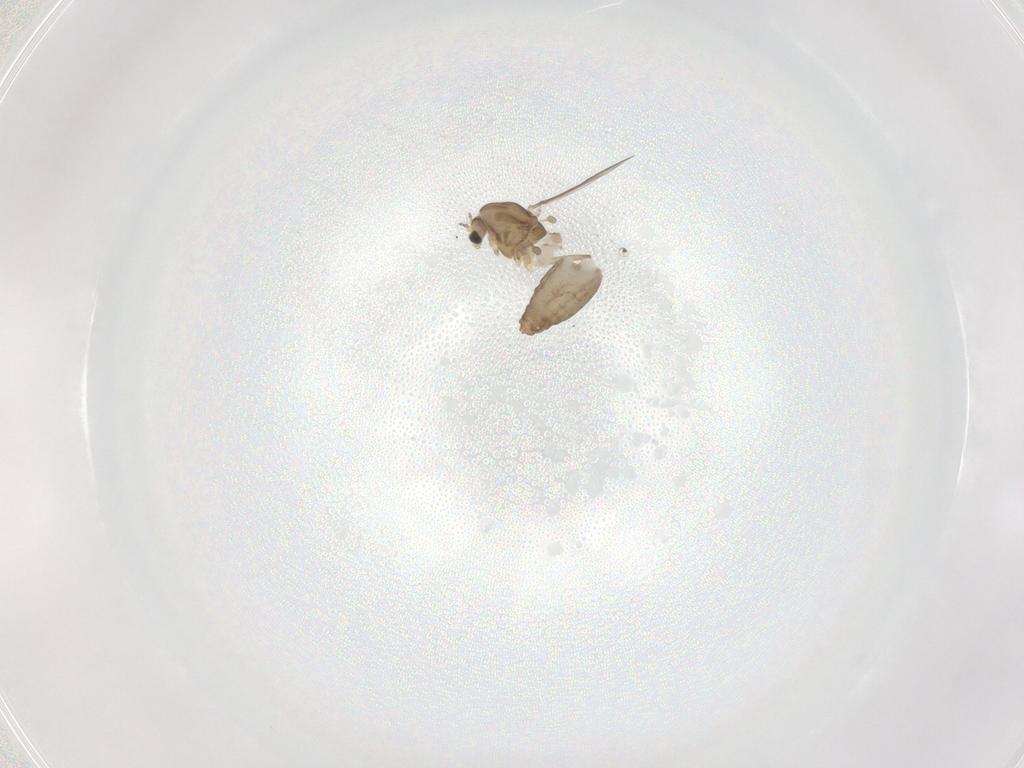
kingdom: Animalia
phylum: Arthropoda
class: Insecta
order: Diptera
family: Chironomidae
